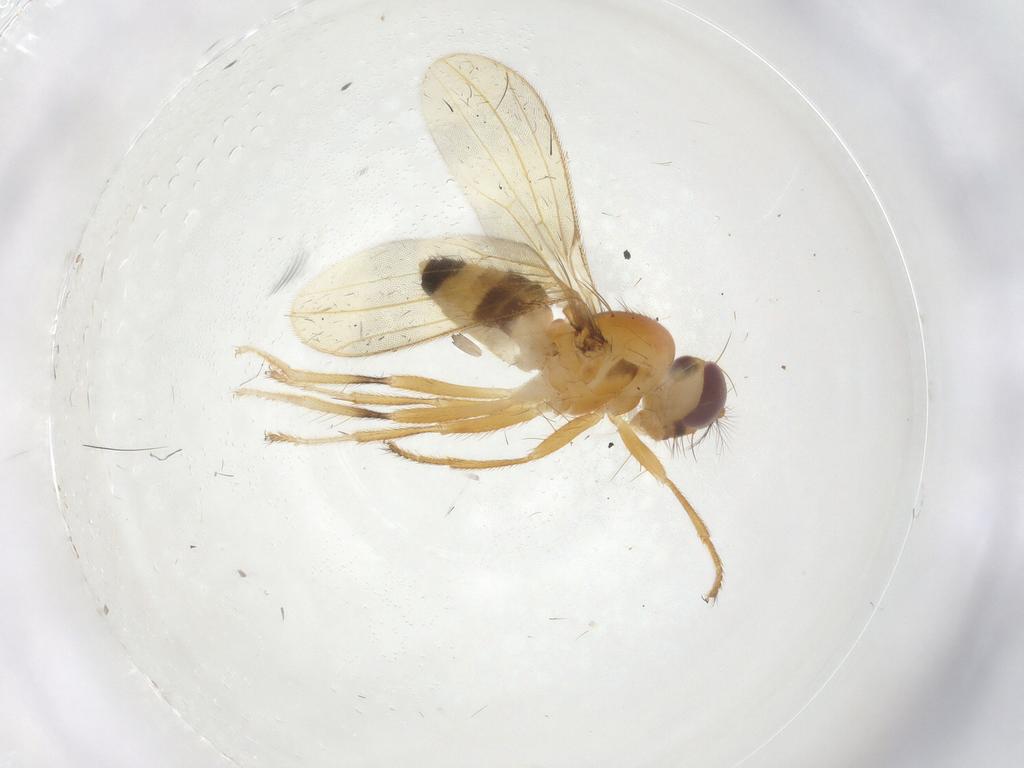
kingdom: Animalia
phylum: Arthropoda
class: Insecta
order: Diptera
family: Periscelididae
